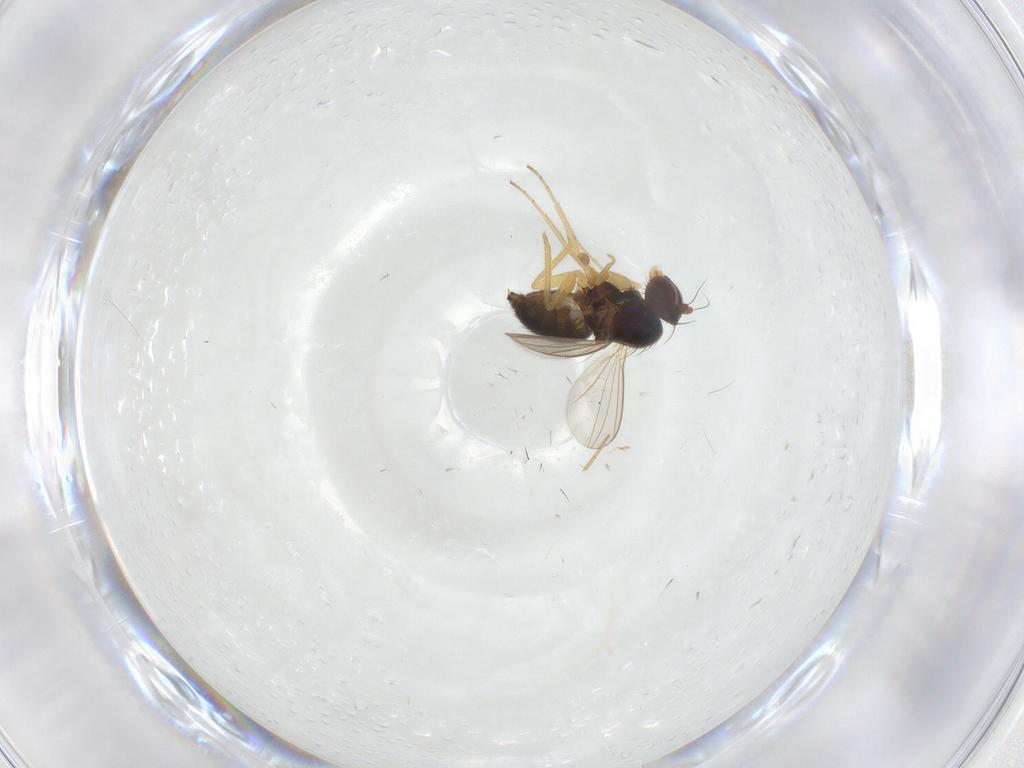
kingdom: Animalia
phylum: Arthropoda
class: Insecta
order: Diptera
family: Dolichopodidae
